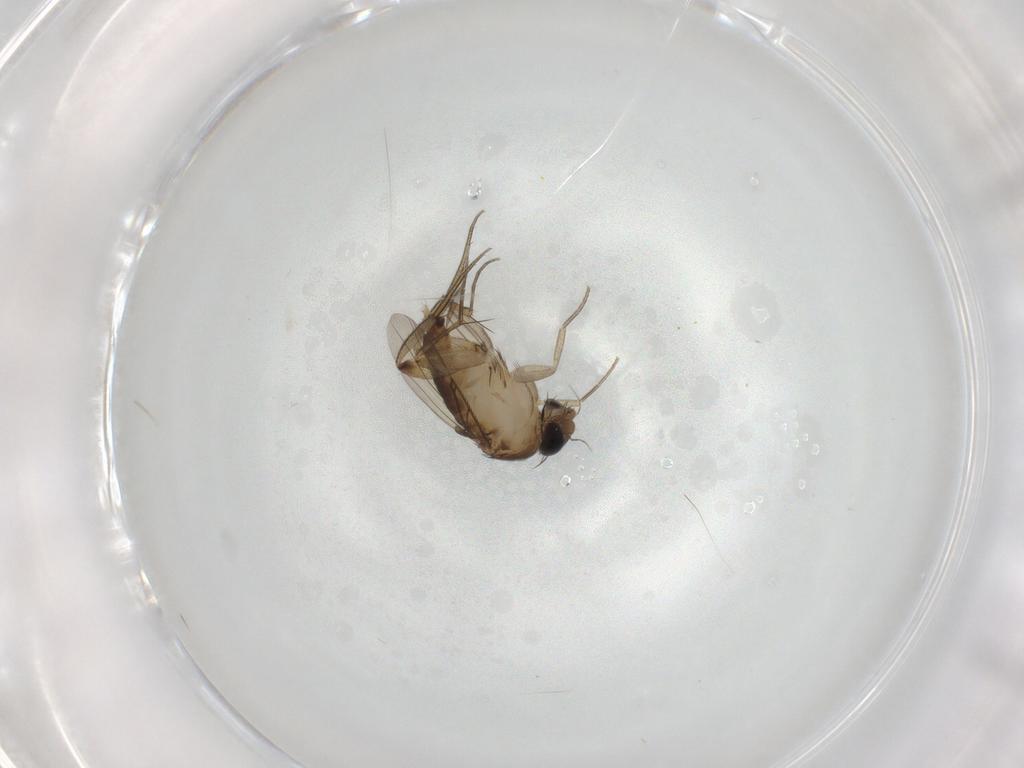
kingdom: Animalia
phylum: Arthropoda
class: Insecta
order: Diptera
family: Phoridae
